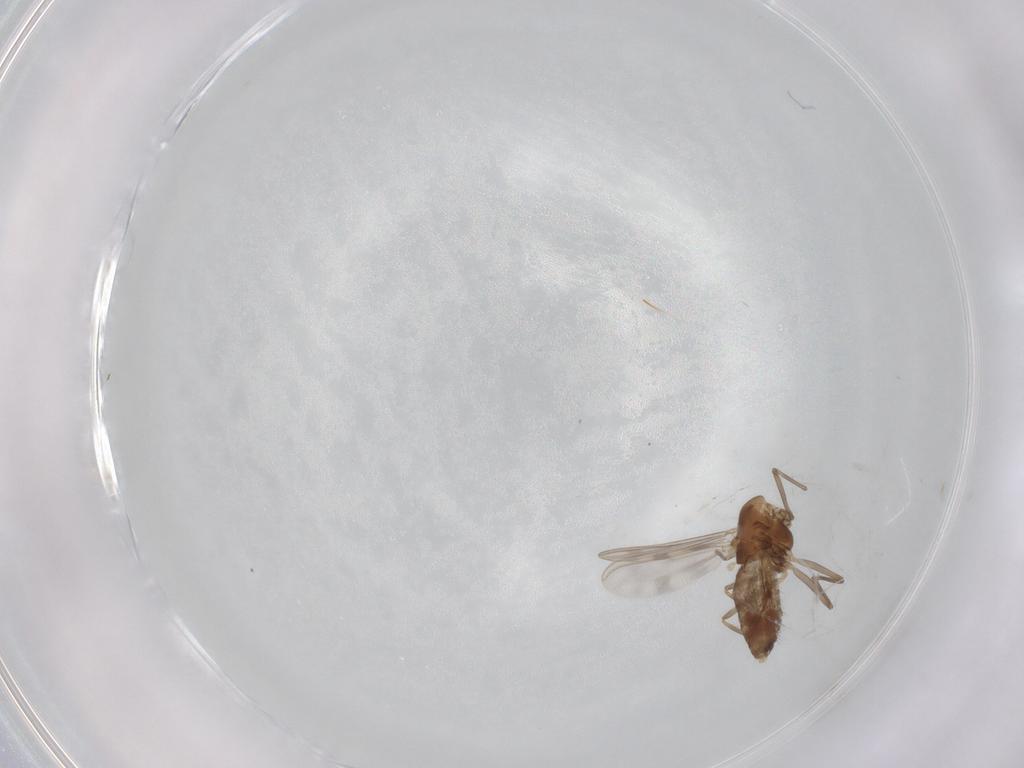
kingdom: Animalia
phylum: Arthropoda
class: Insecta
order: Diptera
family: Chironomidae
